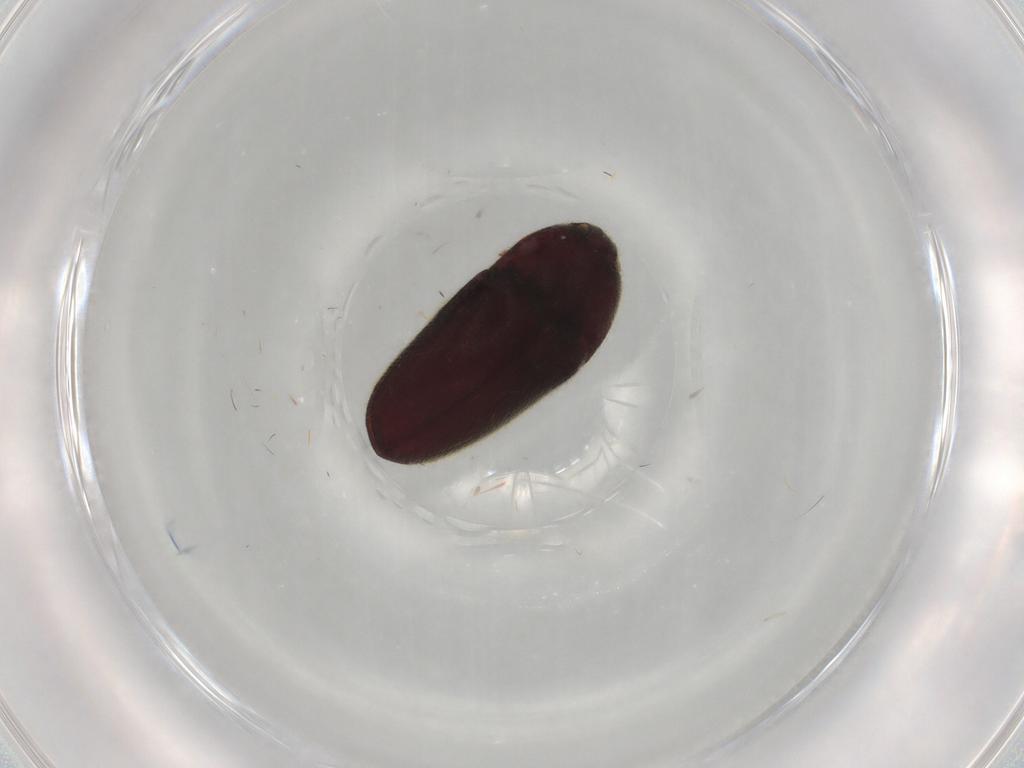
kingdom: Animalia
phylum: Arthropoda
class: Insecta
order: Coleoptera
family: Throscidae
